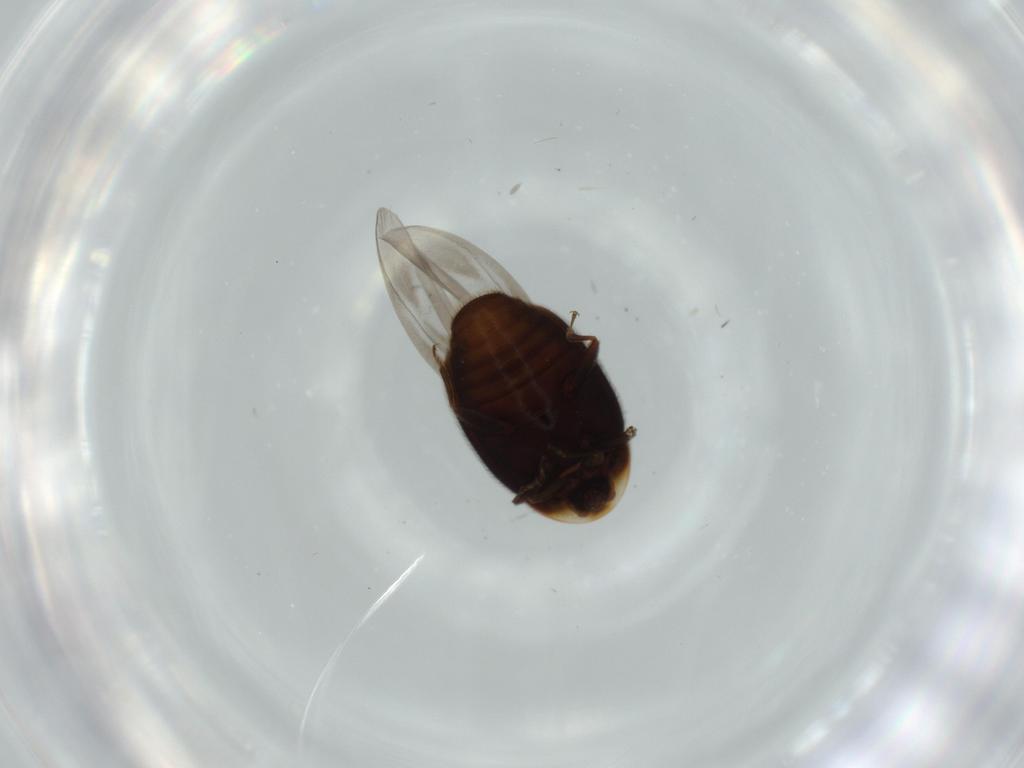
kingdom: Animalia
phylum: Arthropoda
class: Insecta
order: Coleoptera
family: Corylophidae
